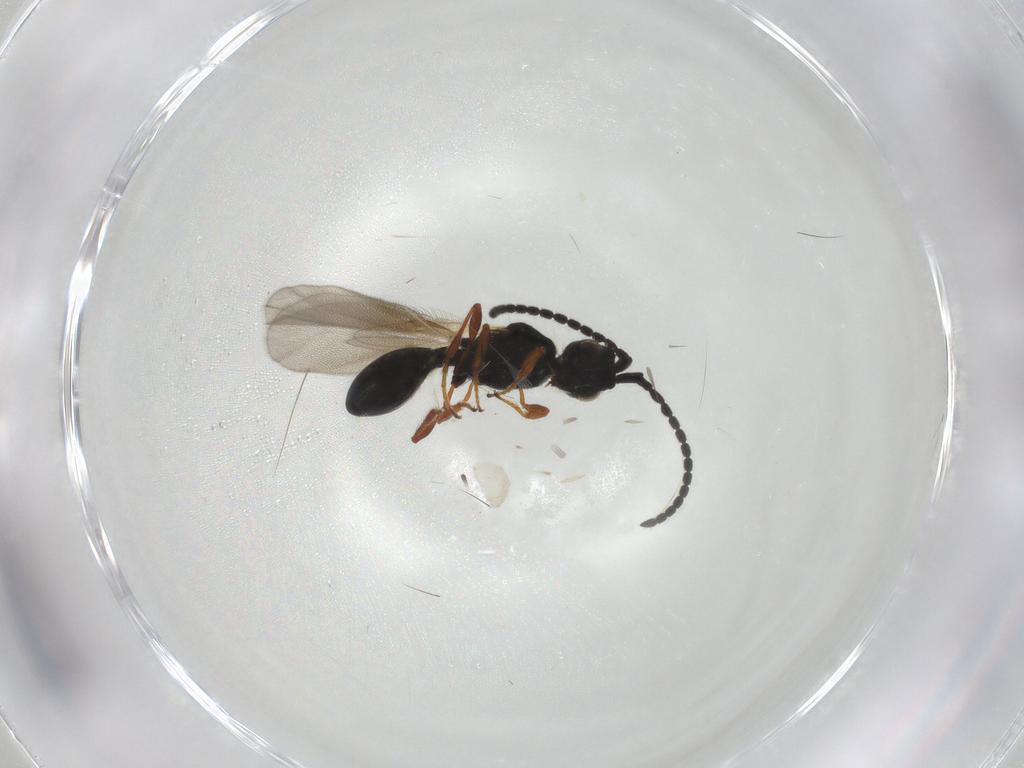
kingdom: Animalia
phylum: Arthropoda
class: Insecta
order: Hymenoptera
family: Diapriidae
